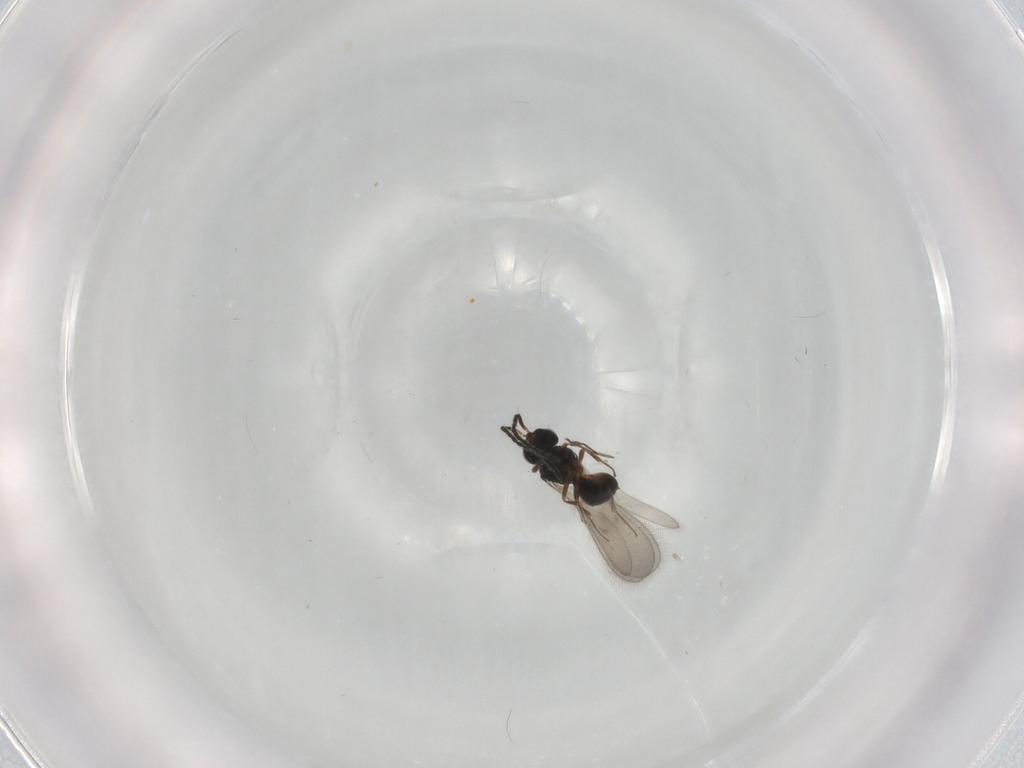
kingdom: Animalia
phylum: Arthropoda
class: Insecta
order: Hymenoptera
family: Scelionidae
